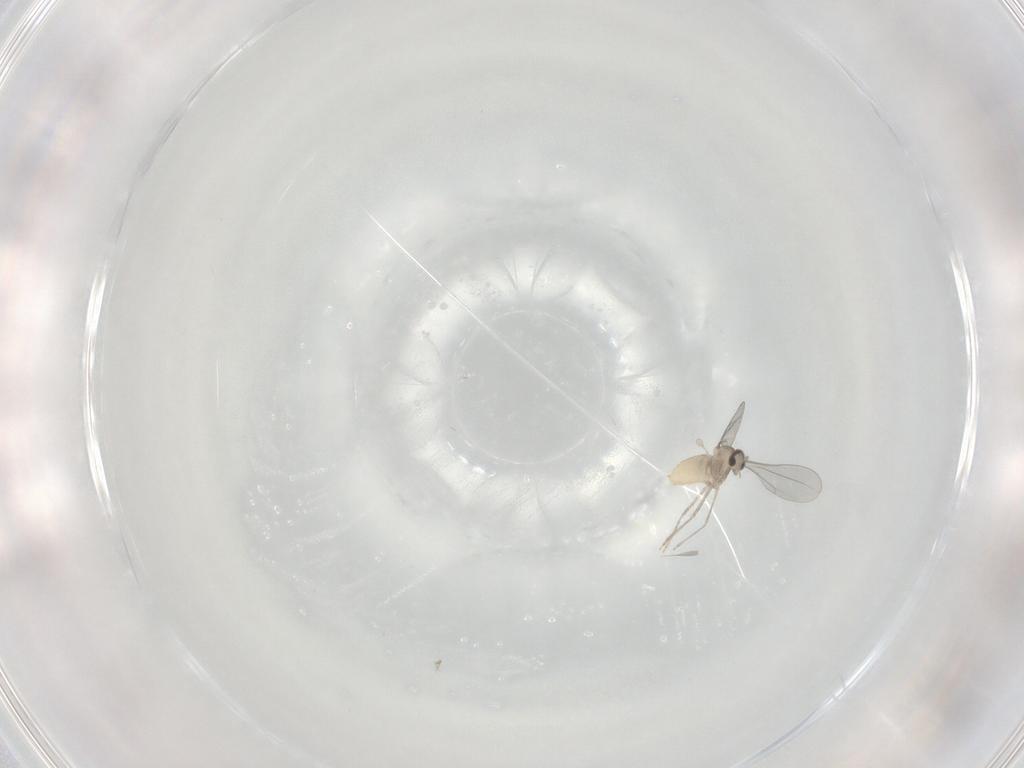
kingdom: Animalia
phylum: Arthropoda
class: Insecta
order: Diptera
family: Cecidomyiidae
